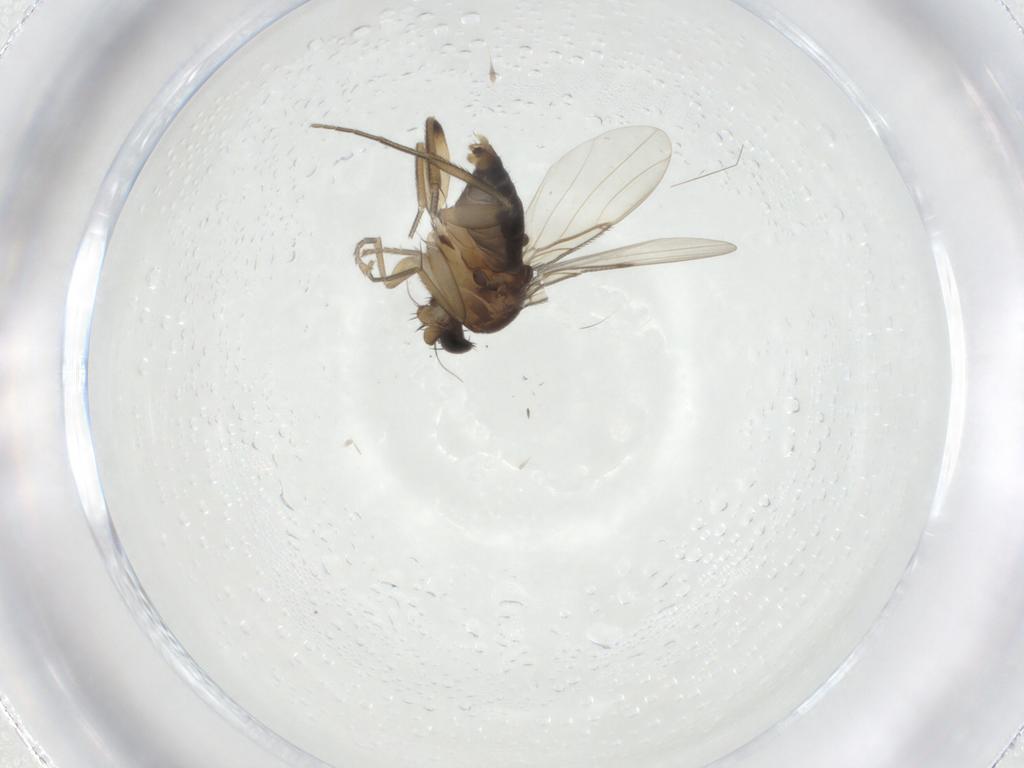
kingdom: Animalia
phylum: Arthropoda
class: Insecta
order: Diptera
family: Phoridae
